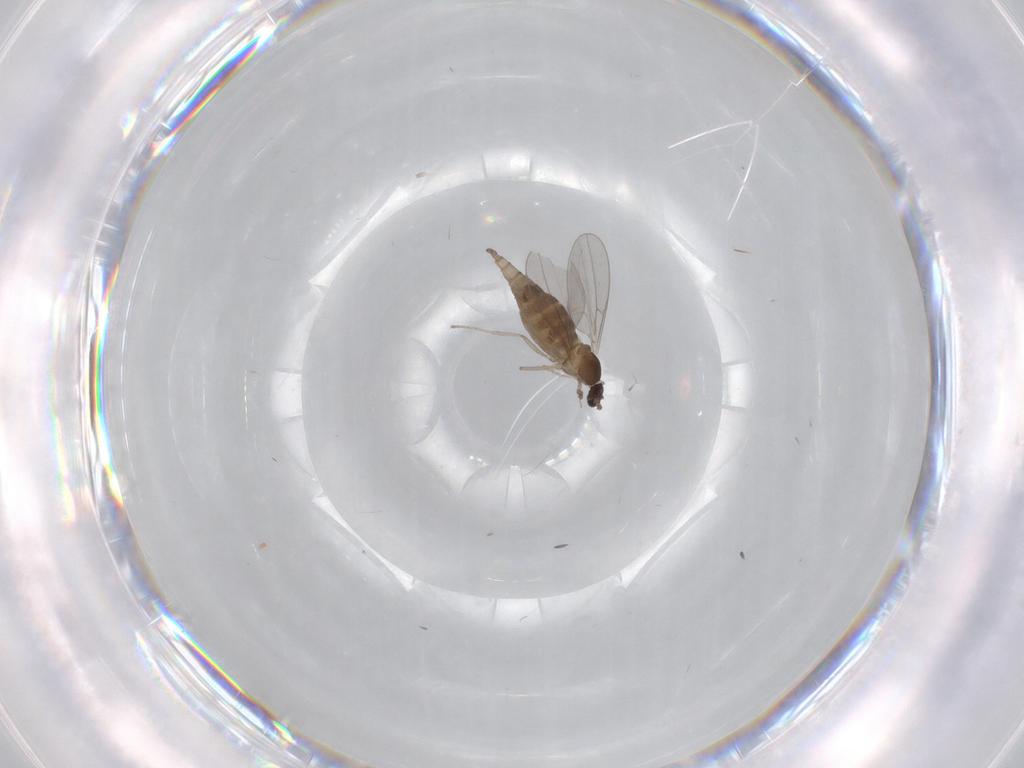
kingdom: Animalia
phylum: Arthropoda
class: Insecta
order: Diptera
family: Cecidomyiidae
